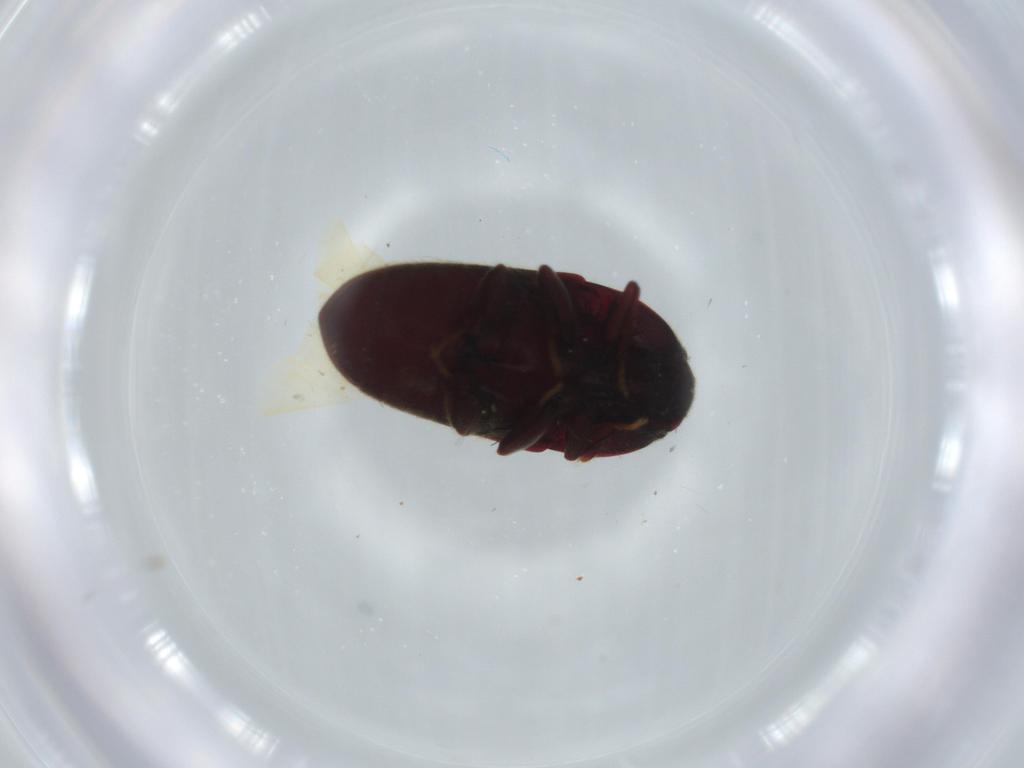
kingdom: Animalia
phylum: Arthropoda
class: Insecta
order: Coleoptera
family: Throscidae
